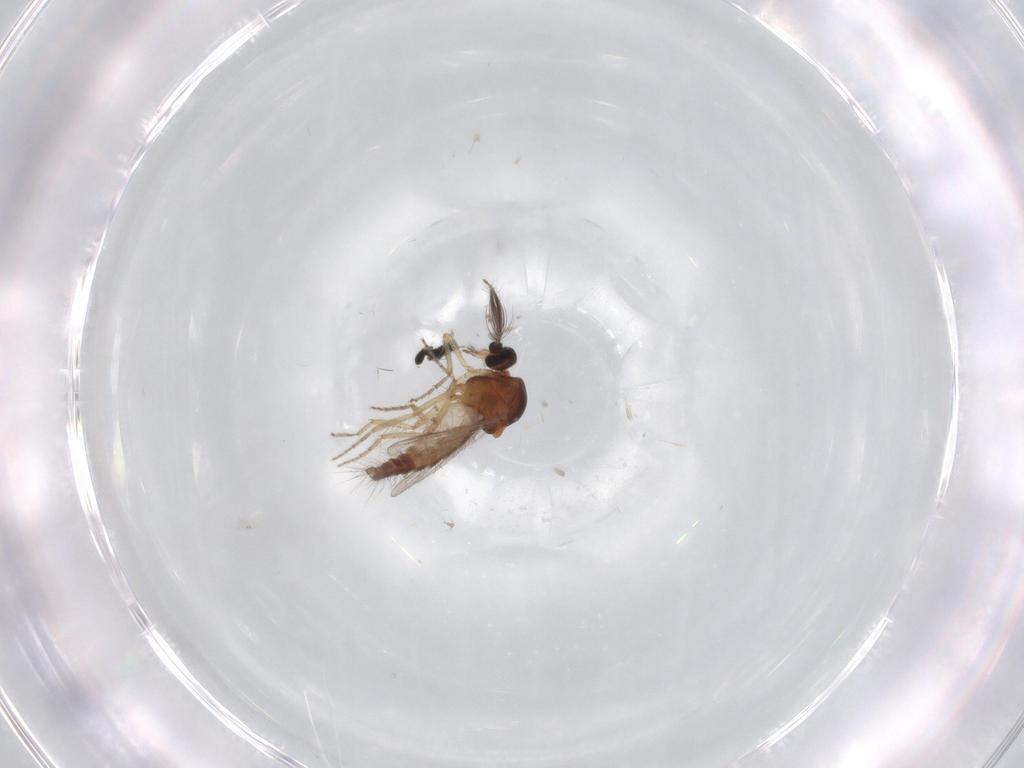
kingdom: Animalia
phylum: Arthropoda
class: Insecta
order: Diptera
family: Ceratopogonidae
